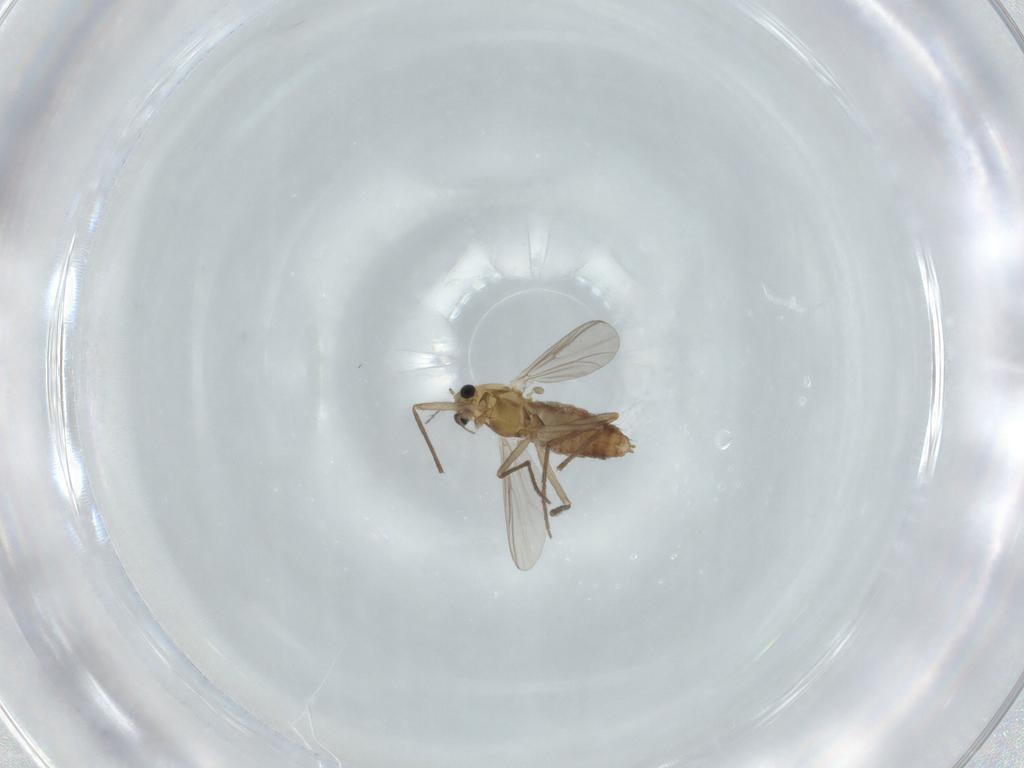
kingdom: Animalia
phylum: Arthropoda
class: Insecta
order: Diptera
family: Chironomidae
